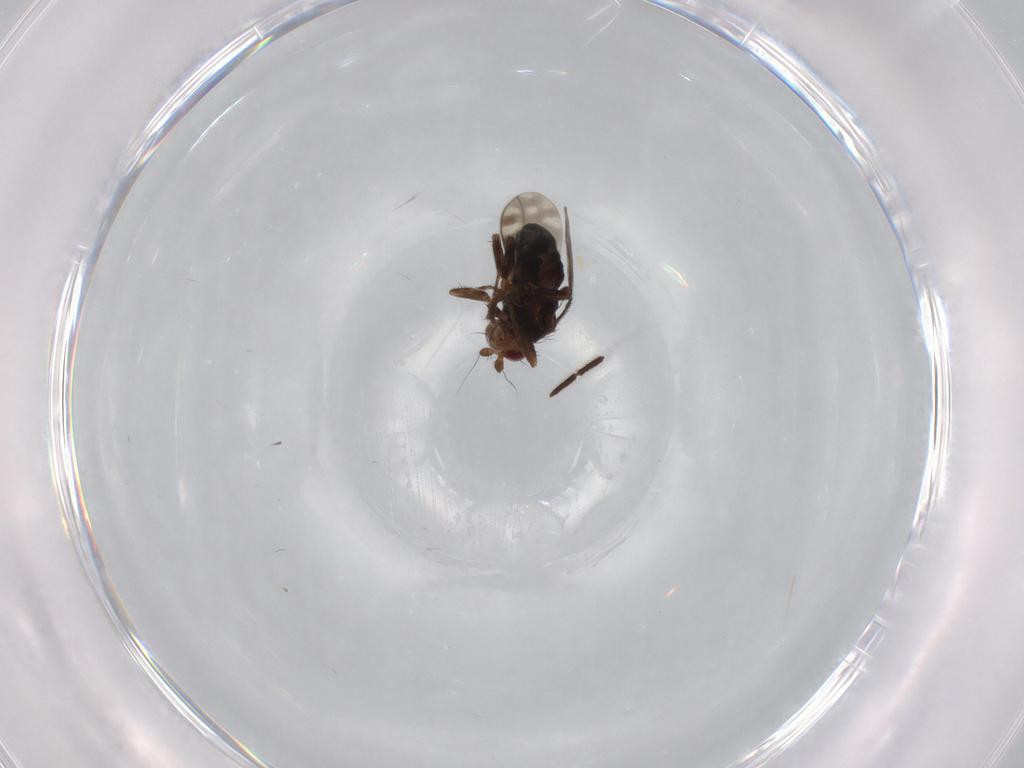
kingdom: Animalia
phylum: Arthropoda
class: Insecta
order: Diptera
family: Sphaeroceridae
